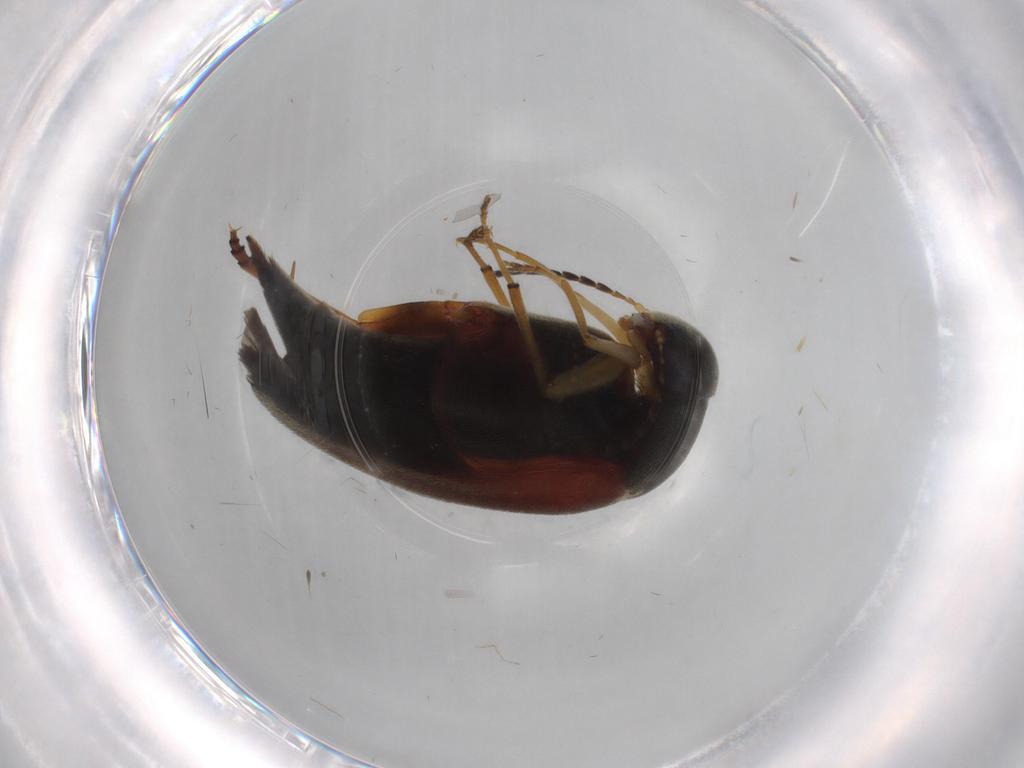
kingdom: Animalia
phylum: Arthropoda
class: Insecta
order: Coleoptera
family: Mordellidae
